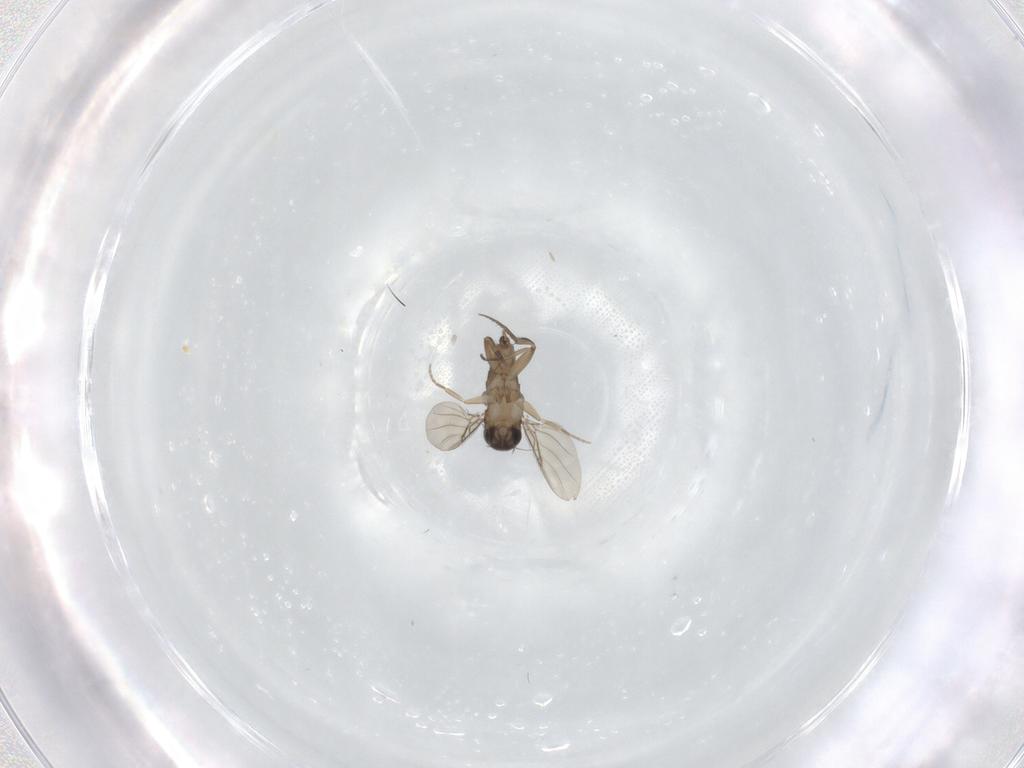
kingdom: Animalia
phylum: Arthropoda
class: Insecta
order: Diptera
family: Phoridae
